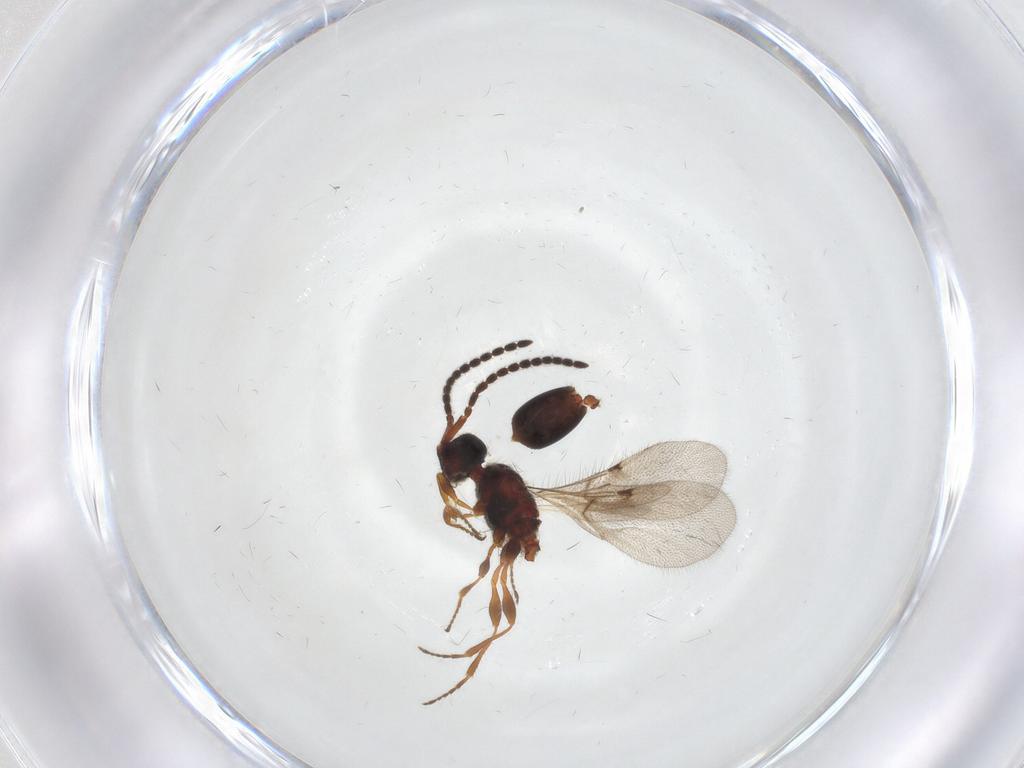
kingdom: Animalia
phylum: Arthropoda
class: Insecta
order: Hymenoptera
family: Diapriidae
